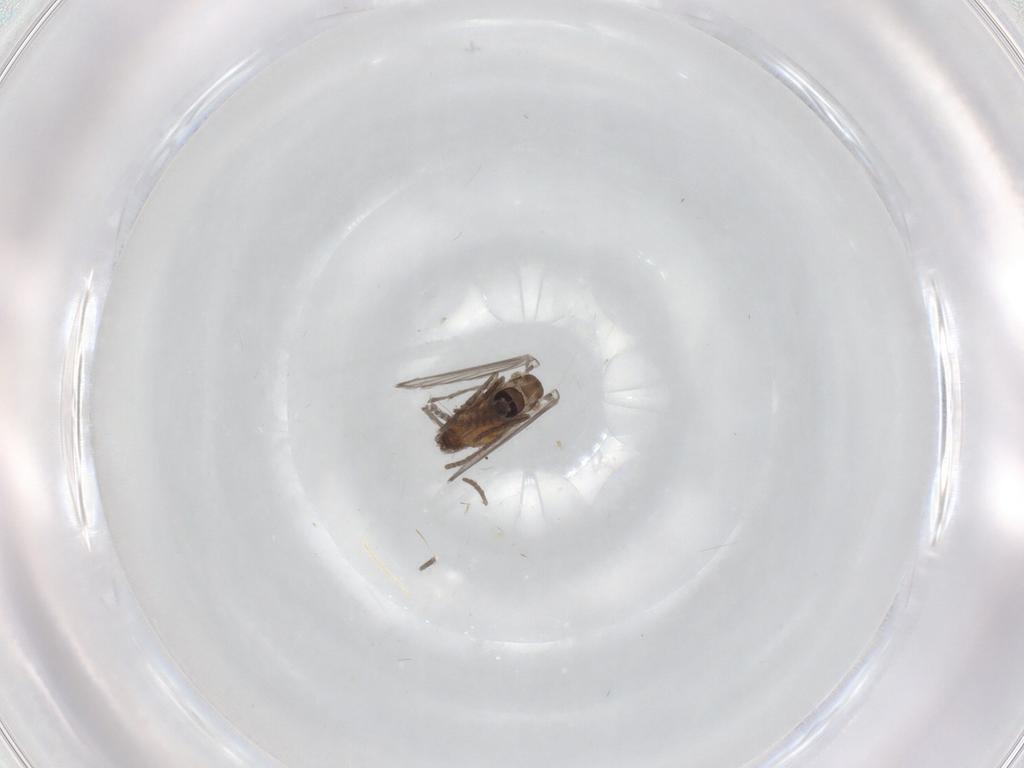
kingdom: Animalia
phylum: Arthropoda
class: Insecta
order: Diptera
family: Psychodidae
